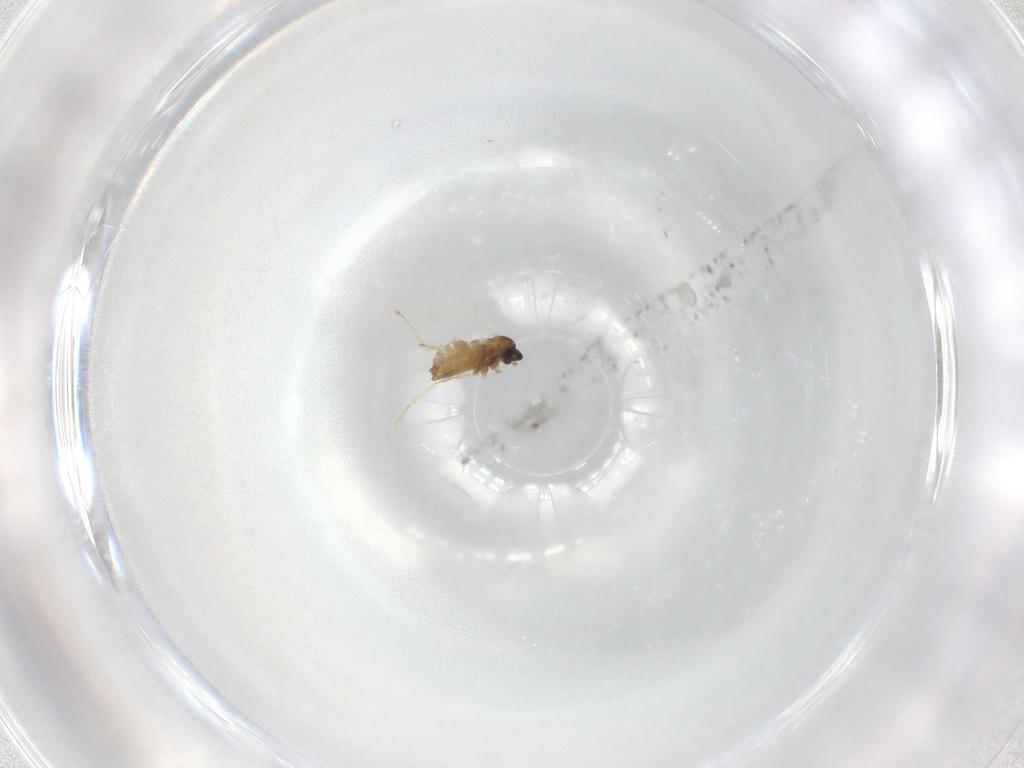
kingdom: Animalia
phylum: Arthropoda
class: Insecta
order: Diptera
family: Cecidomyiidae
